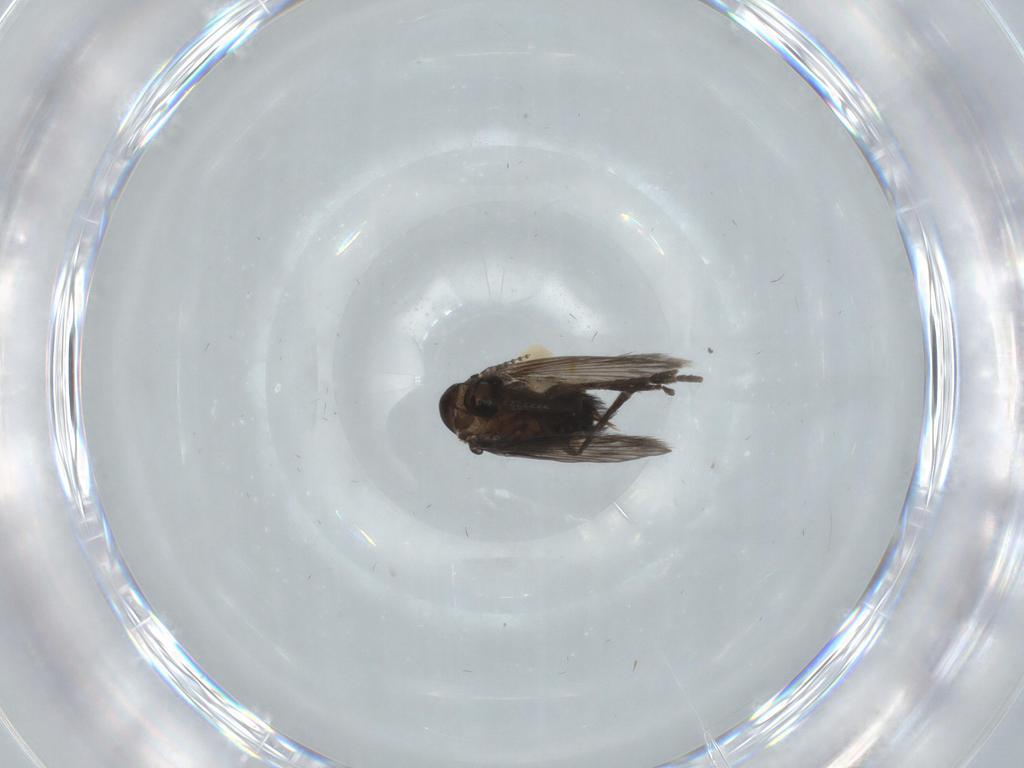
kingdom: Animalia
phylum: Arthropoda
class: Insecta
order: Diptera
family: Psychodidae
